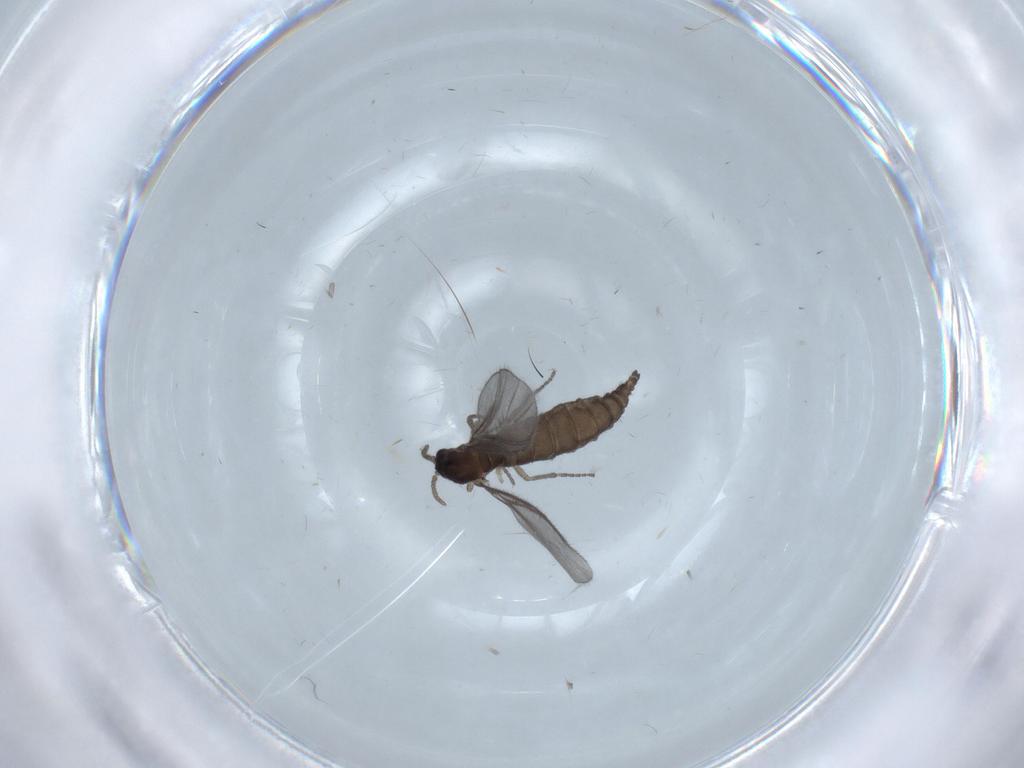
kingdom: Animalia
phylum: Arthropoda
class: Insecta
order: Diptera
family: Sciaridae
